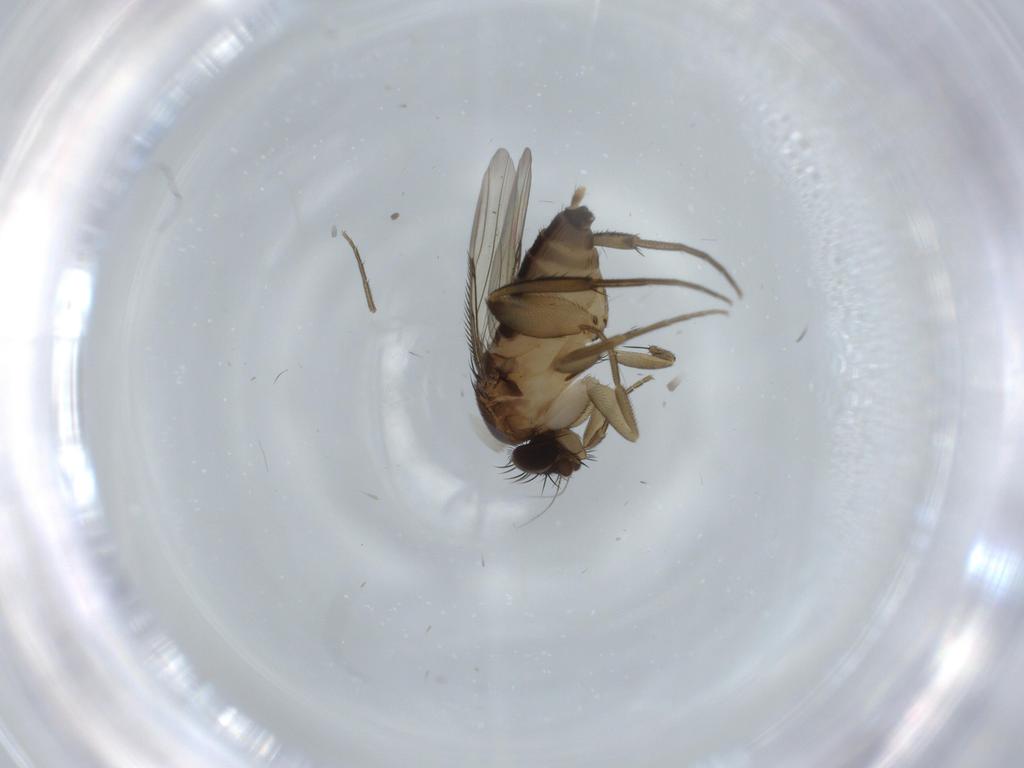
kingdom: Animalia
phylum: Arthropoda
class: Insecta
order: Diptera
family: Phoridae
